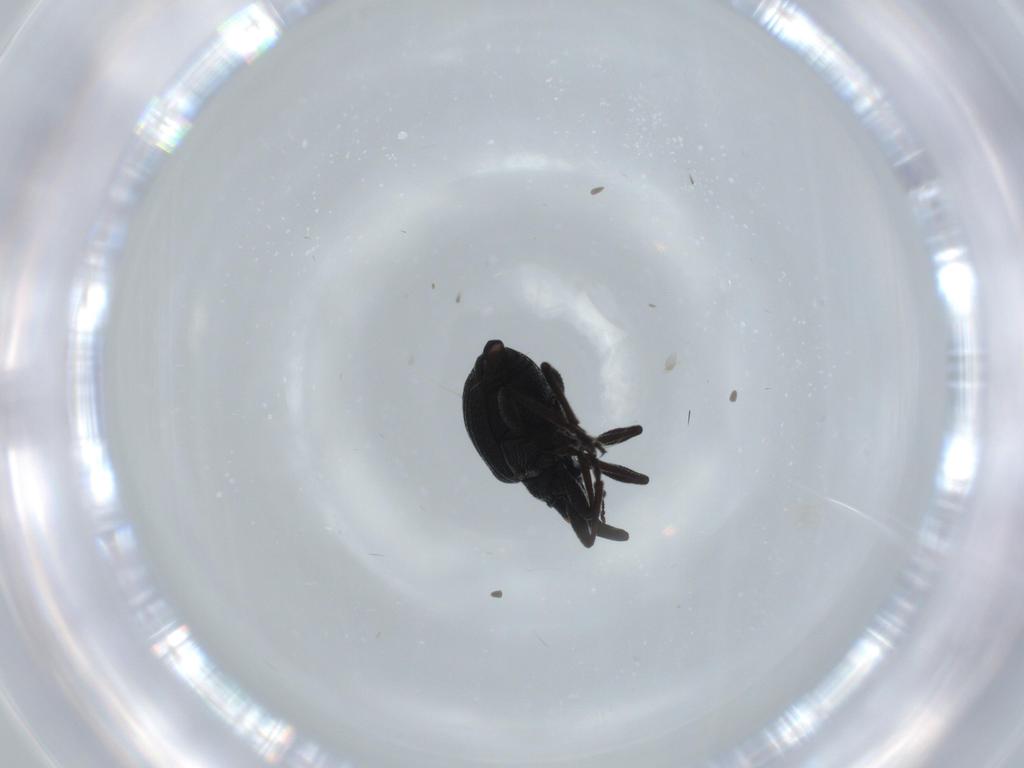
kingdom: Animalia
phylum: Arthropoda
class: Insecta
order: Coleoptera
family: Brentidae
